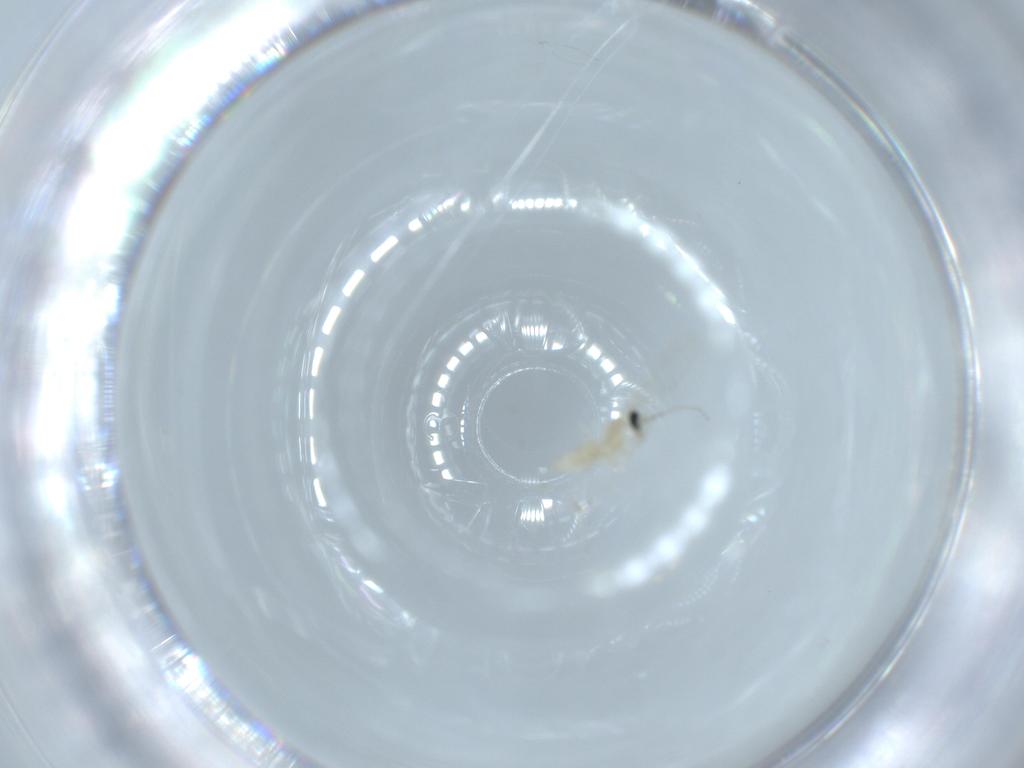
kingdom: Animalia
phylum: Arthropoda
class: Insecta
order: Diptera
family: Cecidomyiidae
